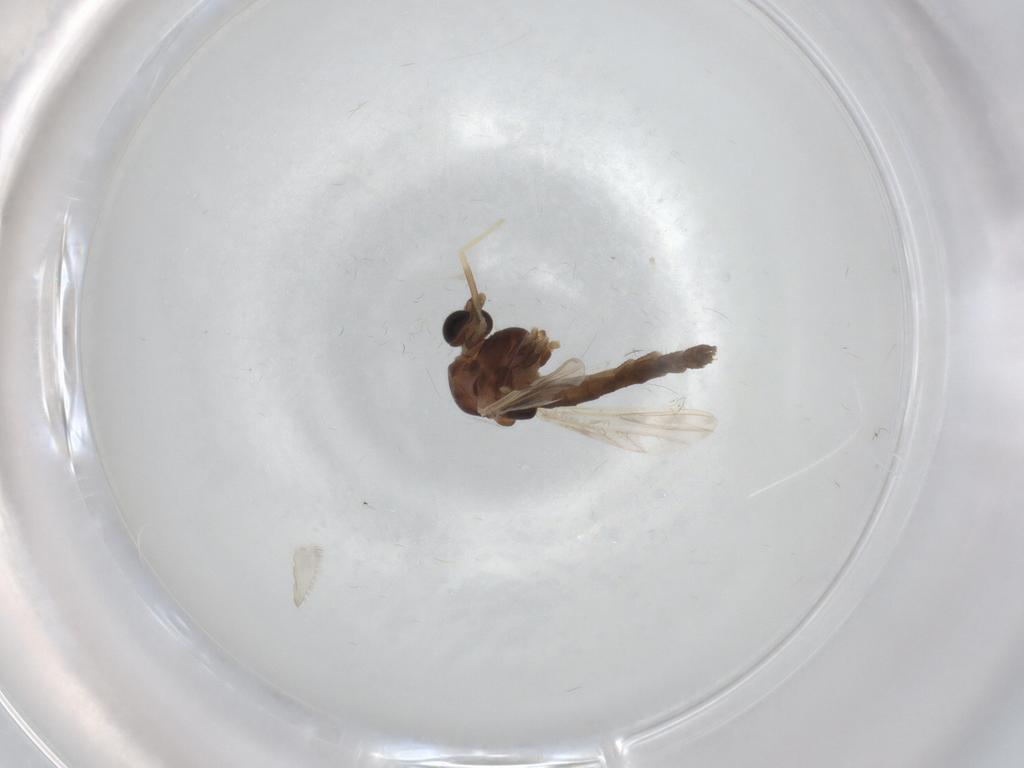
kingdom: Animalia
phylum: Arthropoda
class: Insecta
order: Diptera
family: Chironomidae
